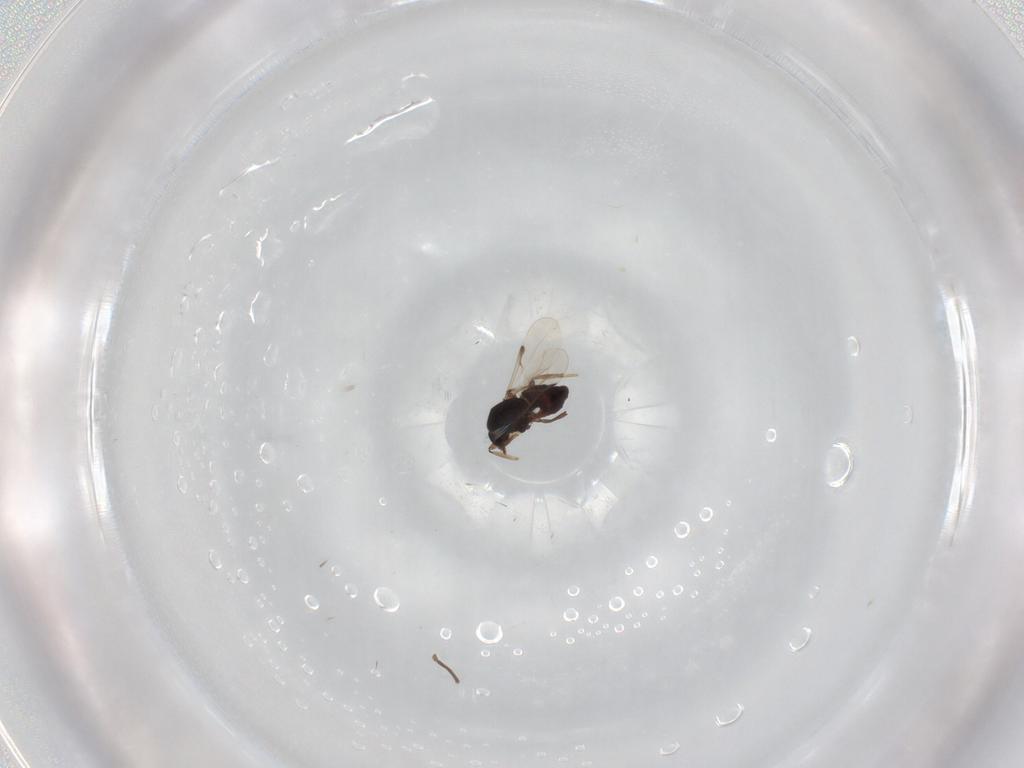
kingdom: Animalia
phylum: Arthropoda
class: Insecta
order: Diptera
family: Ceratopogonidae
